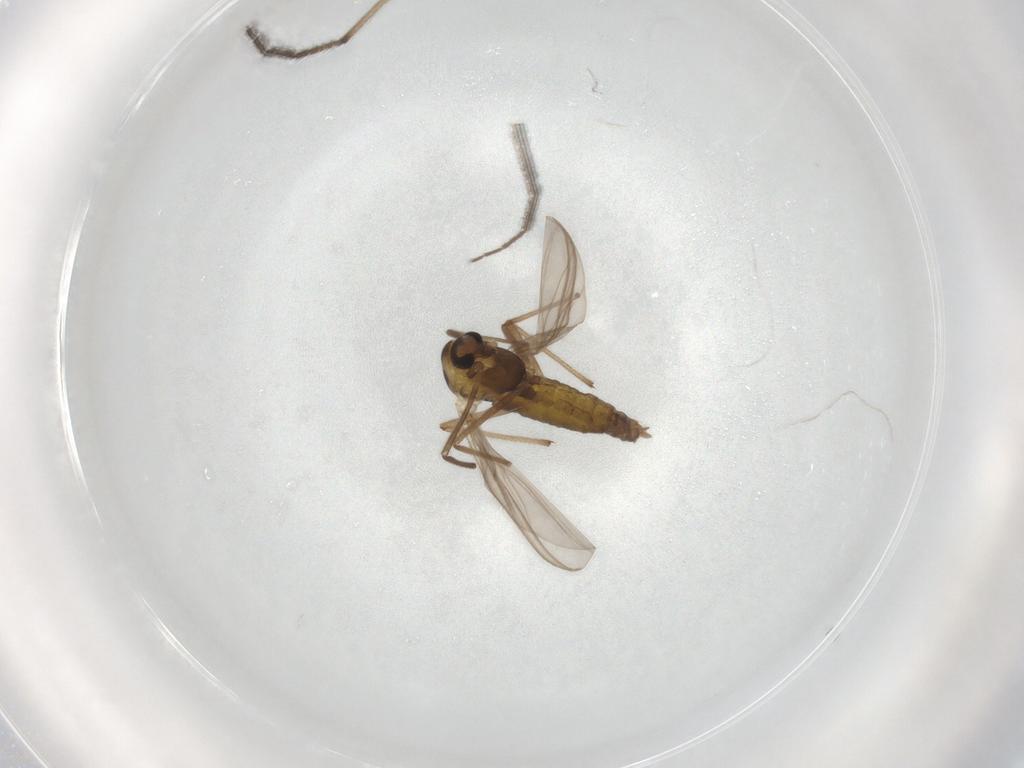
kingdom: Animalia
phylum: Arthropoda
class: Insecta
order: Diptera
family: Chironomidae
